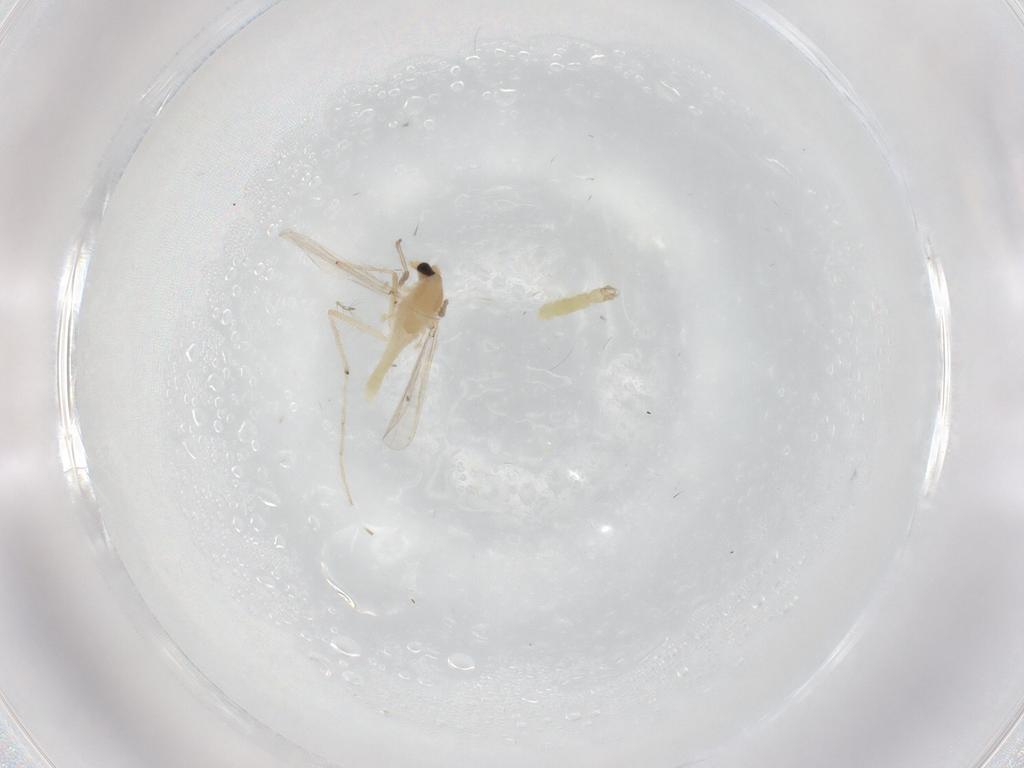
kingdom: Animalia
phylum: Arthropoda
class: Insecta
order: Diptera
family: Chironomidae
